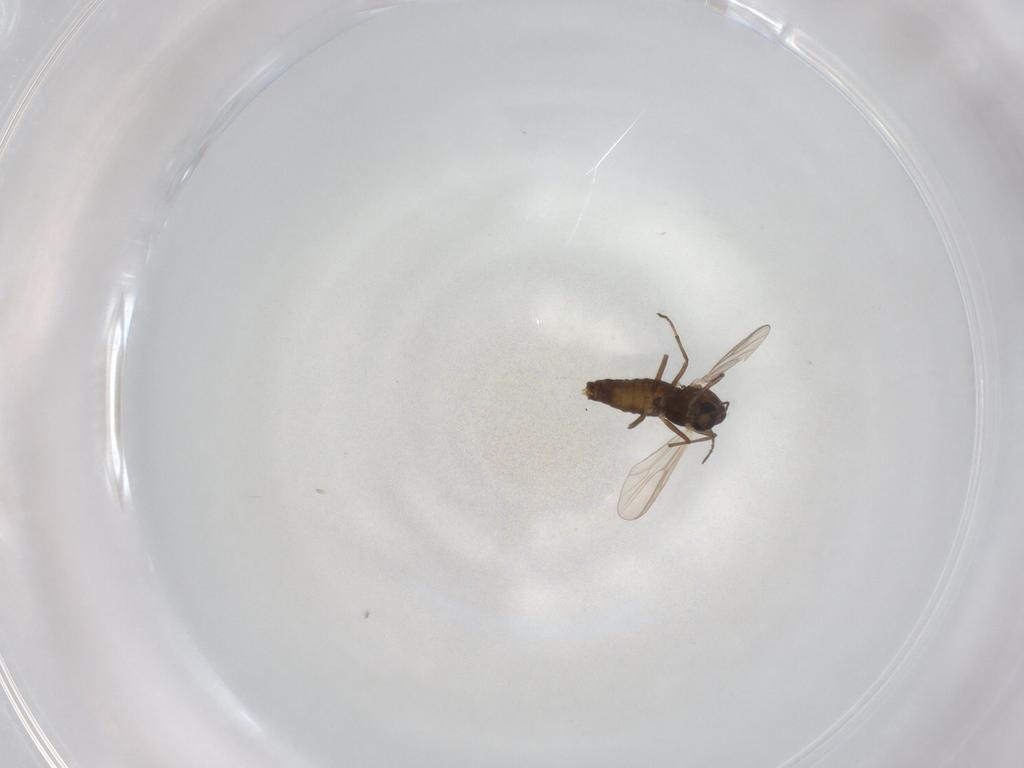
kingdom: Animalia
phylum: Arthropoda
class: Insecta
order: Diptera
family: Chironomidae
